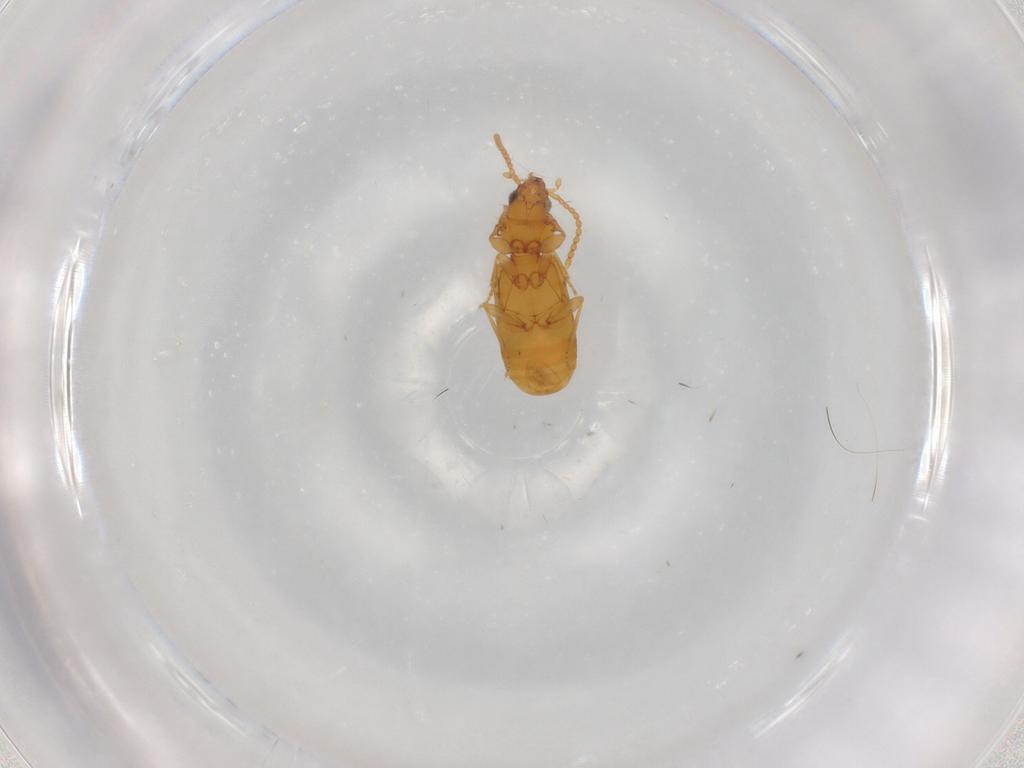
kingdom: Animalia
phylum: Arthropoda
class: Insecta
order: Coleoptera
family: Carabidae
